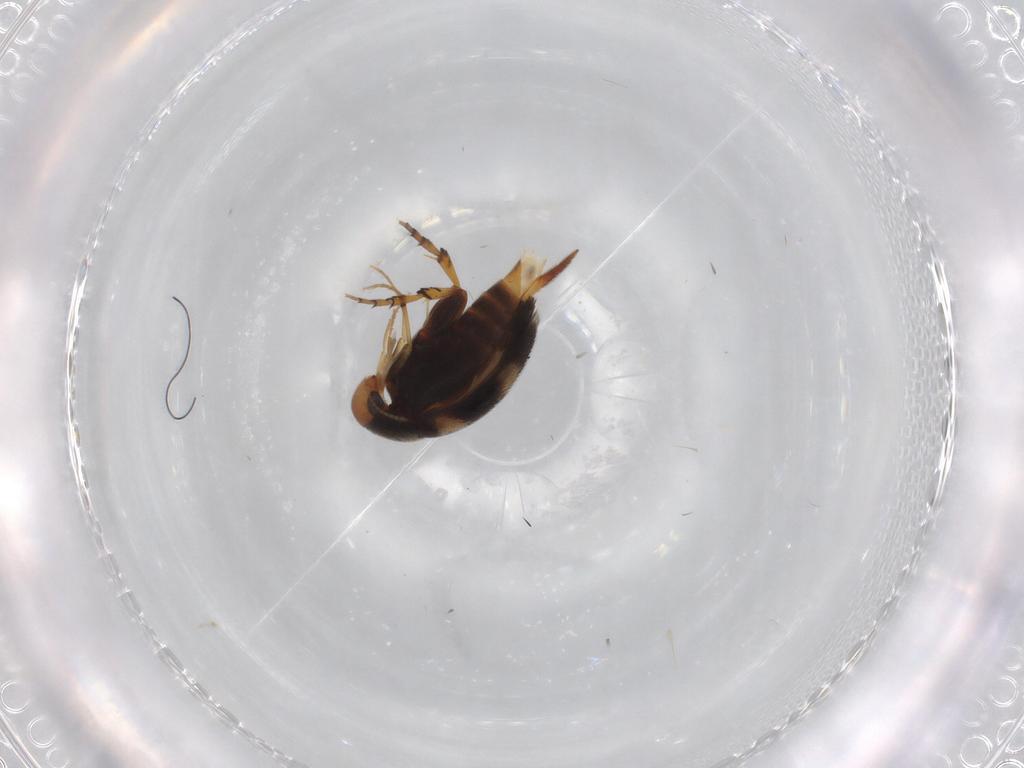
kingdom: Animalia
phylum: Arthropoda
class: Insecta
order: Coleoptera
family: Mordellidae
